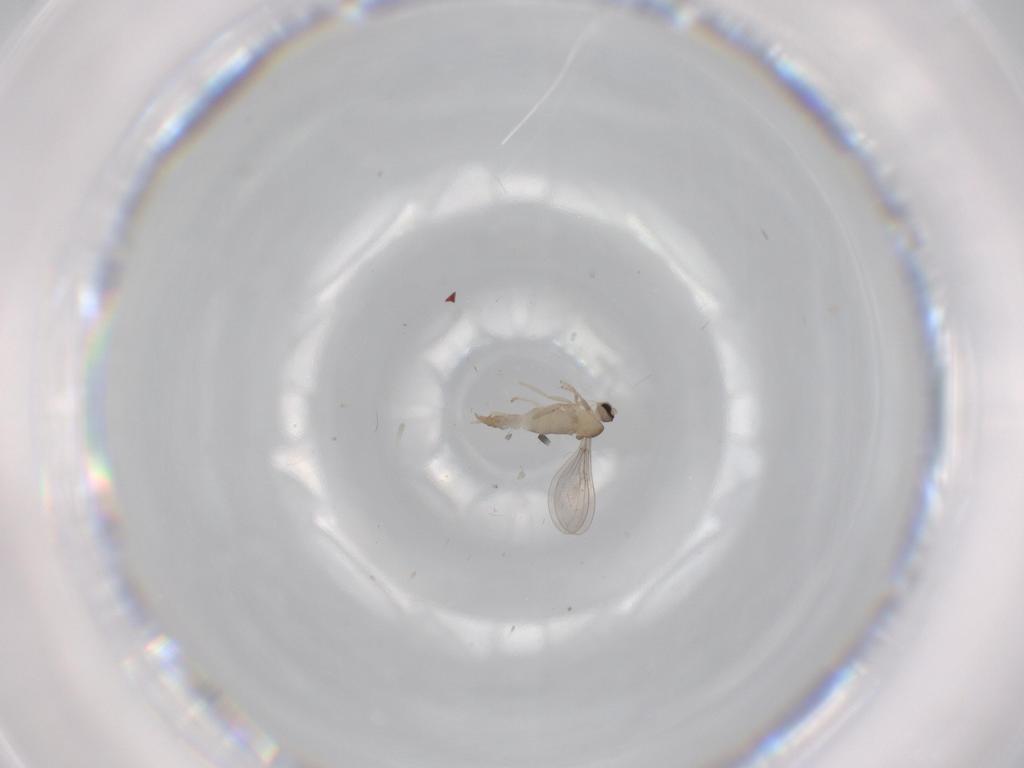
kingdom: Animalia
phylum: Arthropoda
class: Insecta
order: Diptera
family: Cecidomyiidae
